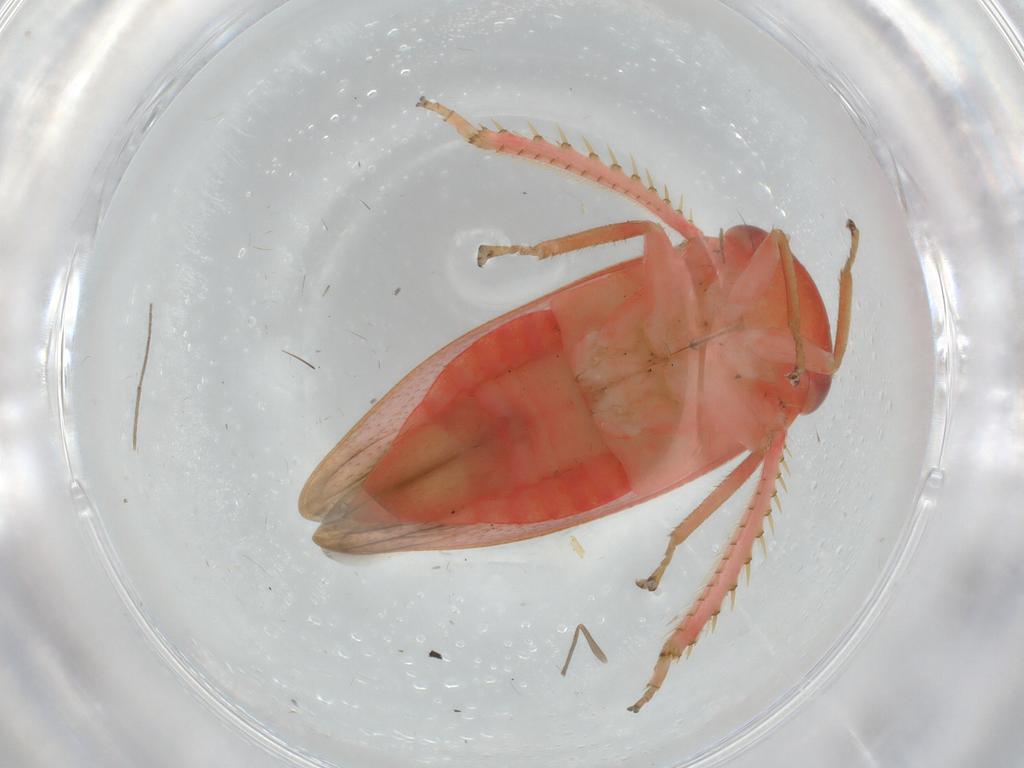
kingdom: Animalia
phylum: Arthropoda
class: Insecta
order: Hemiptera
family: Cicadellidae
